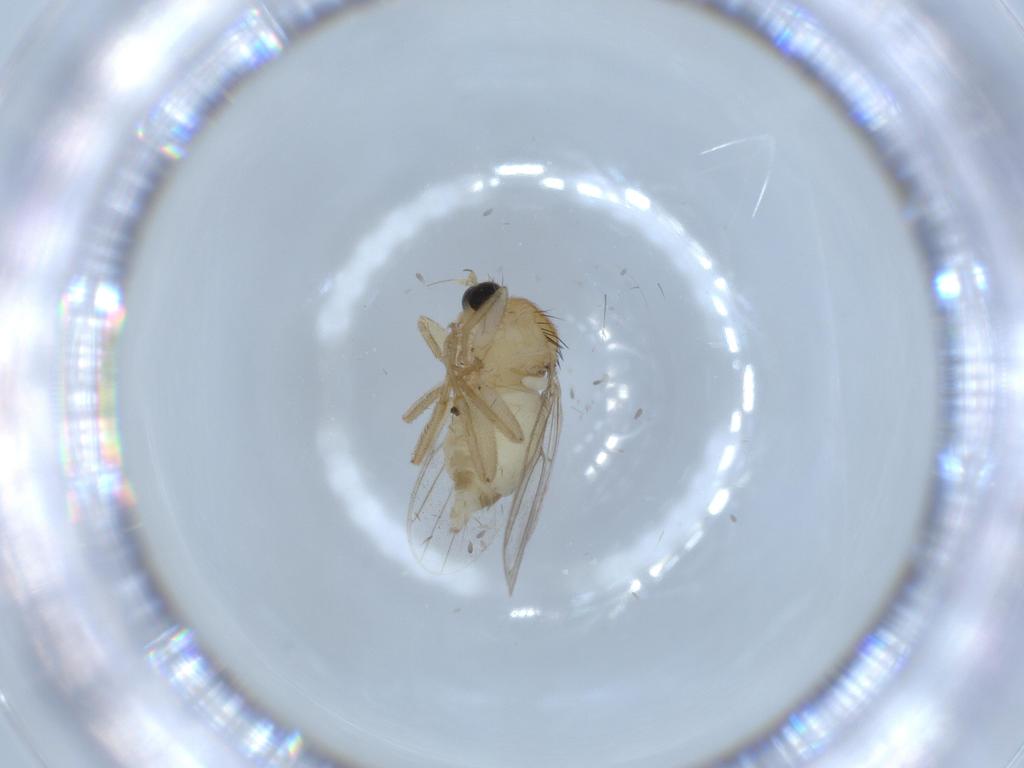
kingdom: Animalia
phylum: Arthropoda
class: Insecta
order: Diptera
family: Hybotidae
